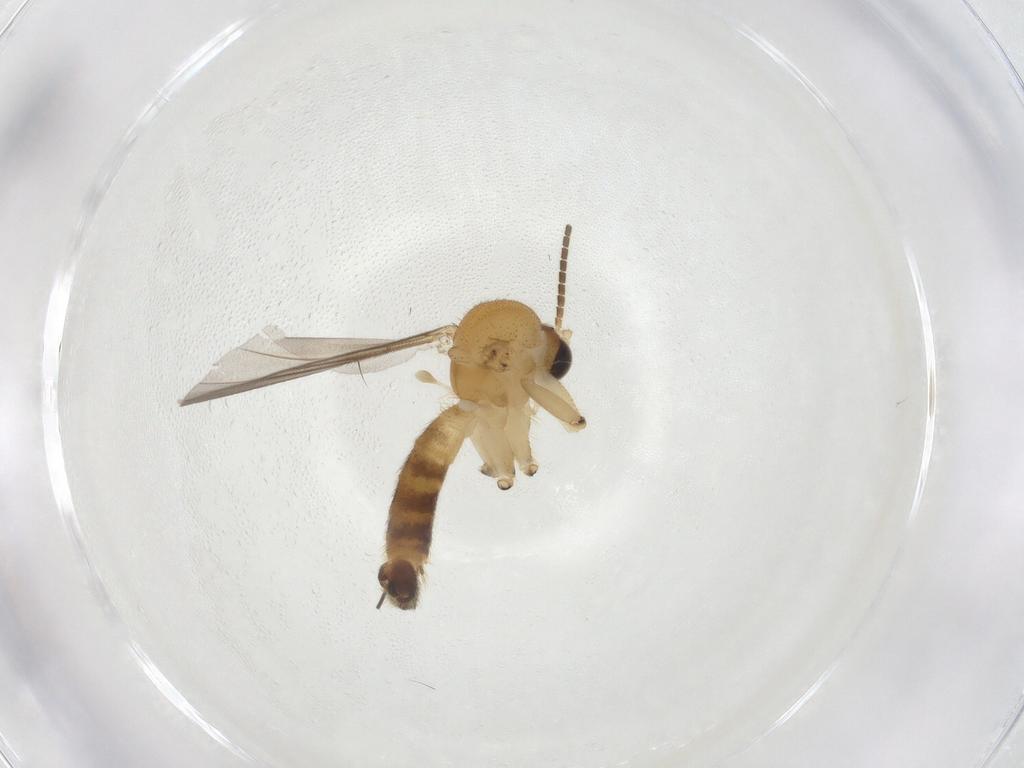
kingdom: Animalia
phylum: Arthropoda
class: Insecta
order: Diptera
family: Mycetophilidae
